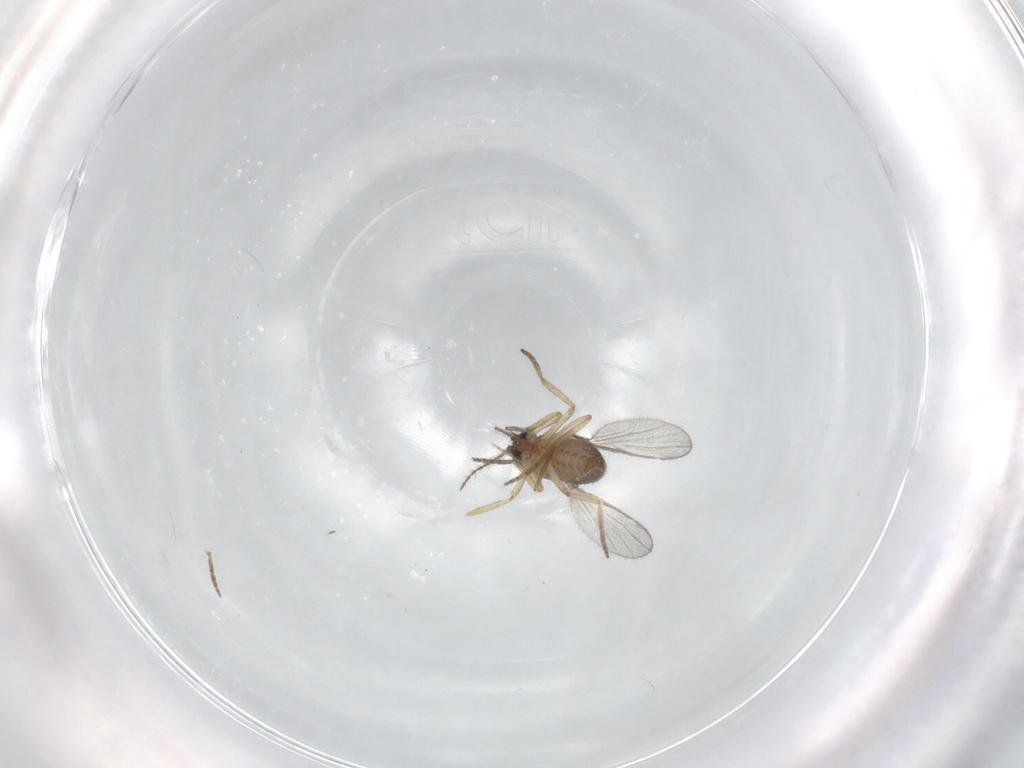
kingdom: Animalia
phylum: Arthropoda
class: Insecta
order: Diptera
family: Chironomidae
